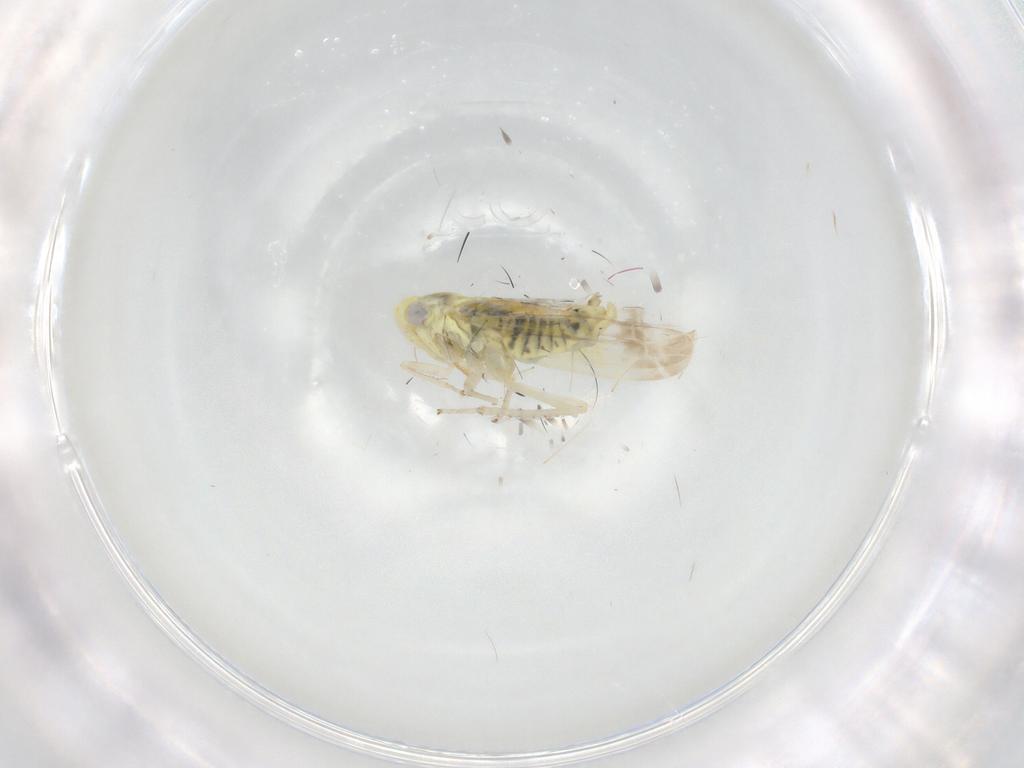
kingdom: Animalia
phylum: Arthropoda
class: Insecta
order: Hemiptera
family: Cicadellidae
